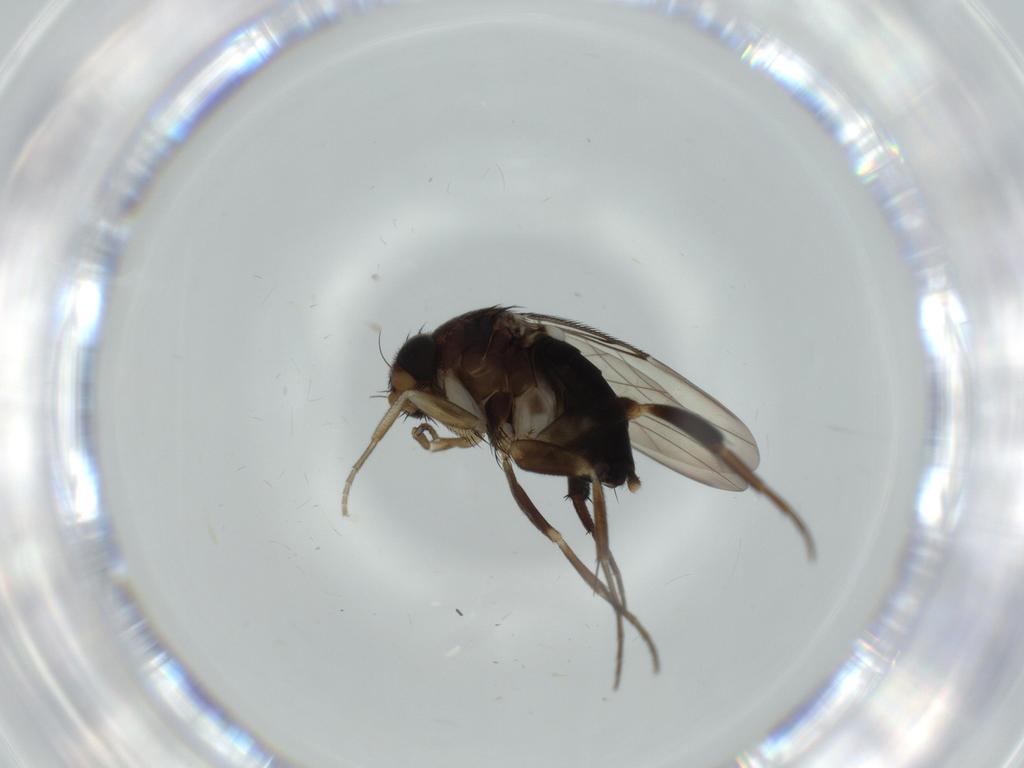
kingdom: Animalia
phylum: Arthropoda
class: Insecta
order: Diptera
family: Phoridae
